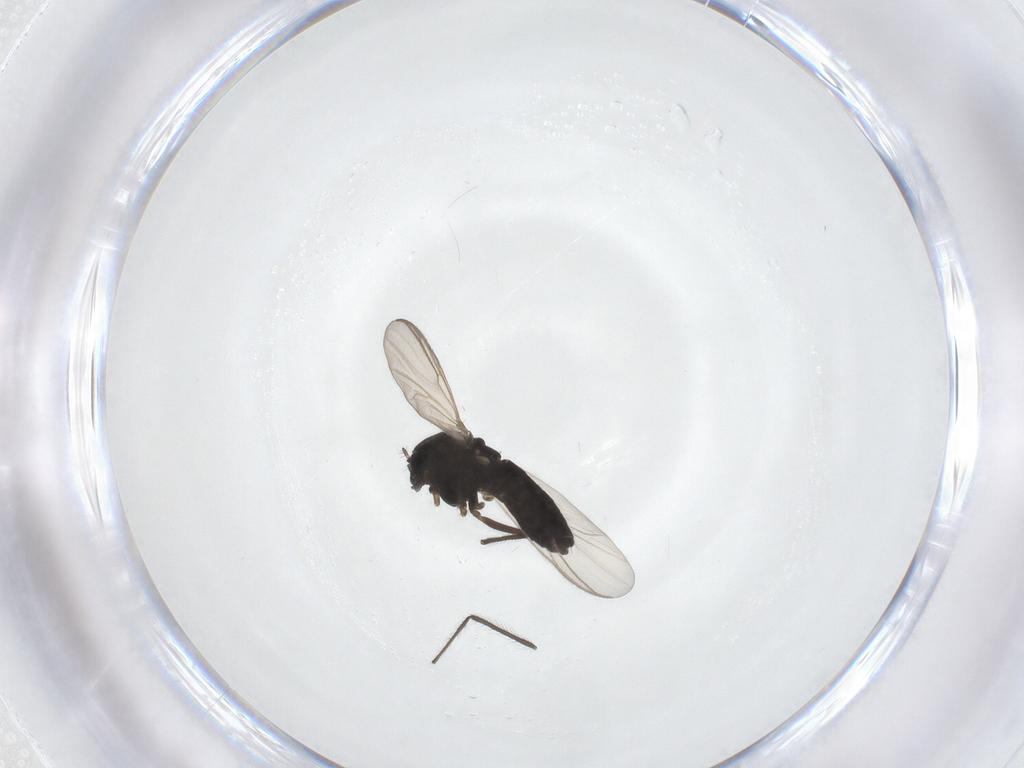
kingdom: Animalia
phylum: Arthropoda
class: Insecta
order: Diptera
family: Chironomidae
